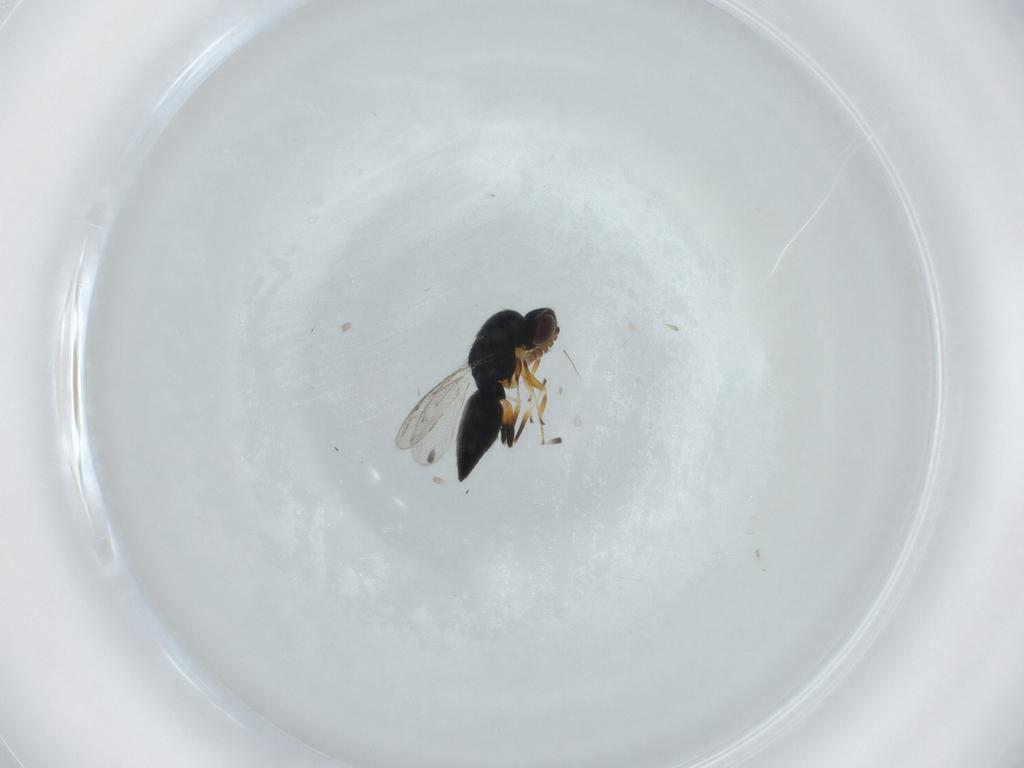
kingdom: Animalia
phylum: Arthropoda
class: Insecta
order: Hymenoptera
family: Eulophidae
